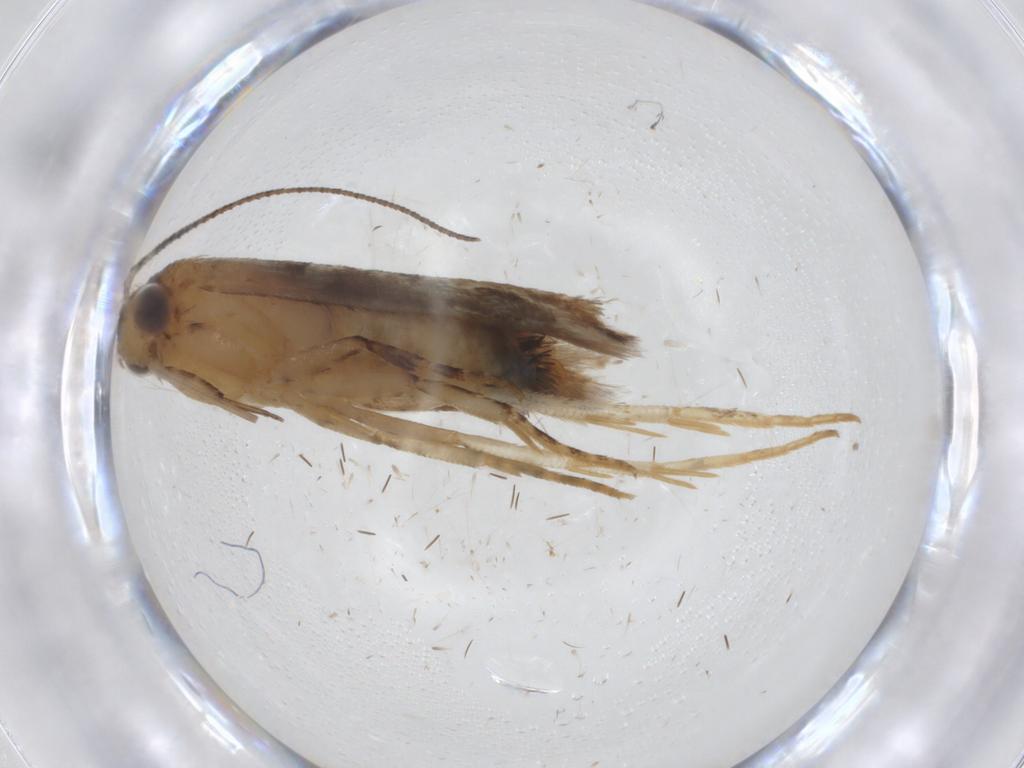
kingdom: Animalia
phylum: Arthropoda
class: Insecta
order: Lepidoptera
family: Gelechiidae
